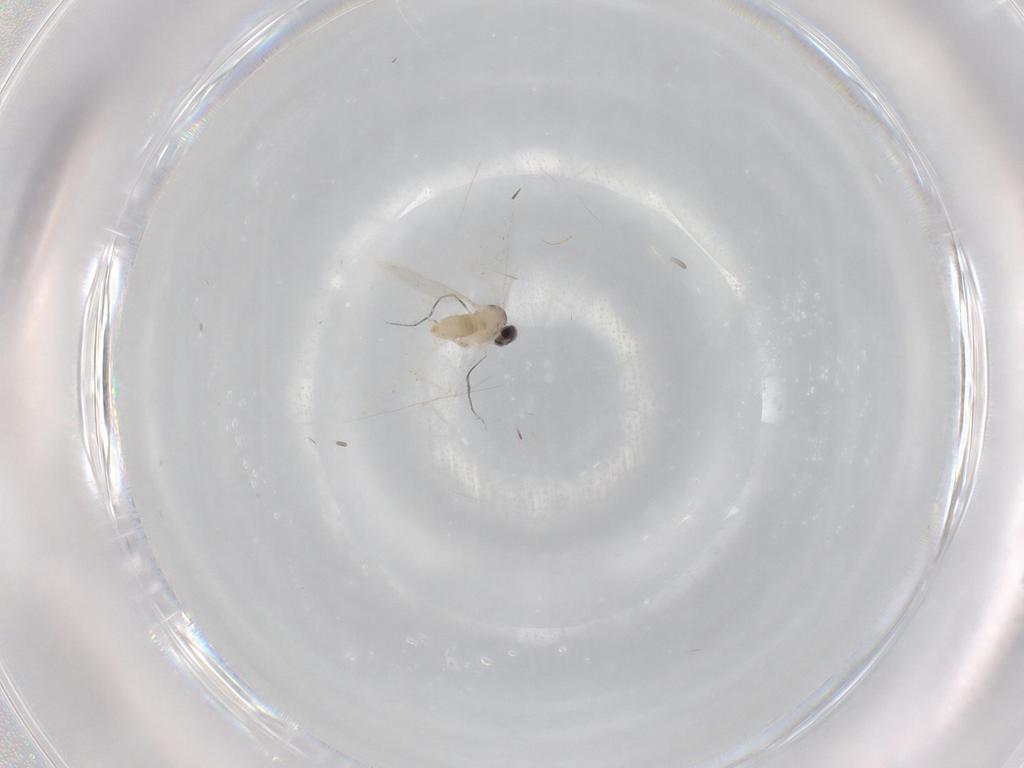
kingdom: Animalia
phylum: Arthropoda
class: Insecta
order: Diptera
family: Cecidomyiidae
